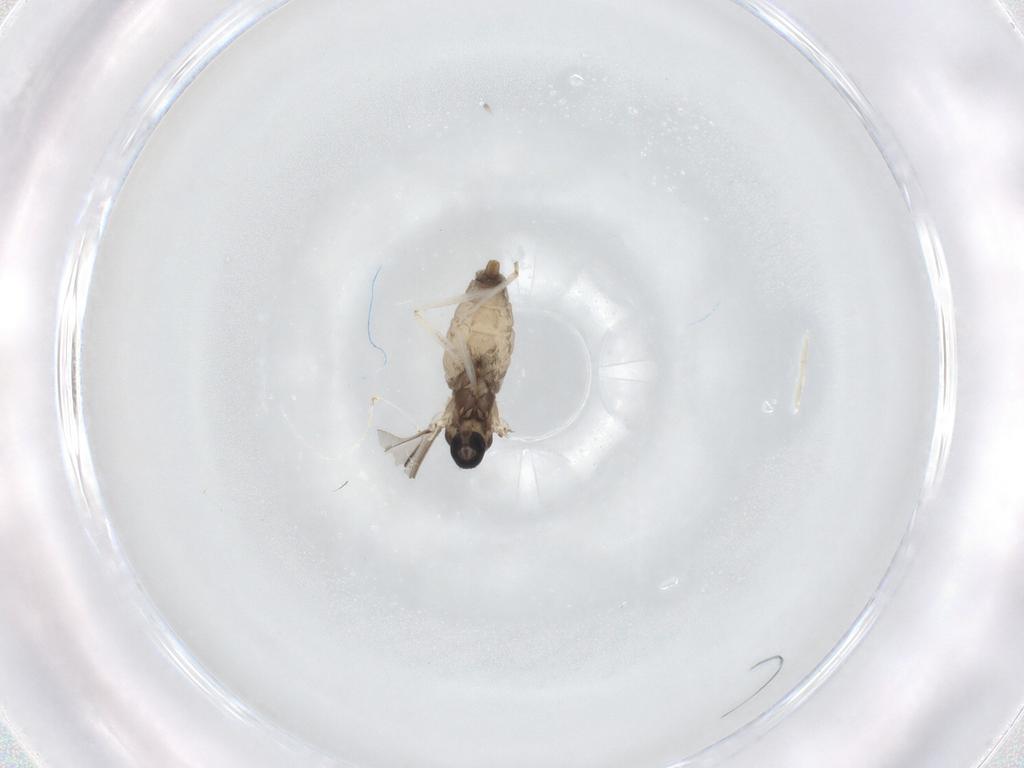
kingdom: Animalia
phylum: Arthropoda
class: Insecta
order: Diptera
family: Cecidomyiidae
